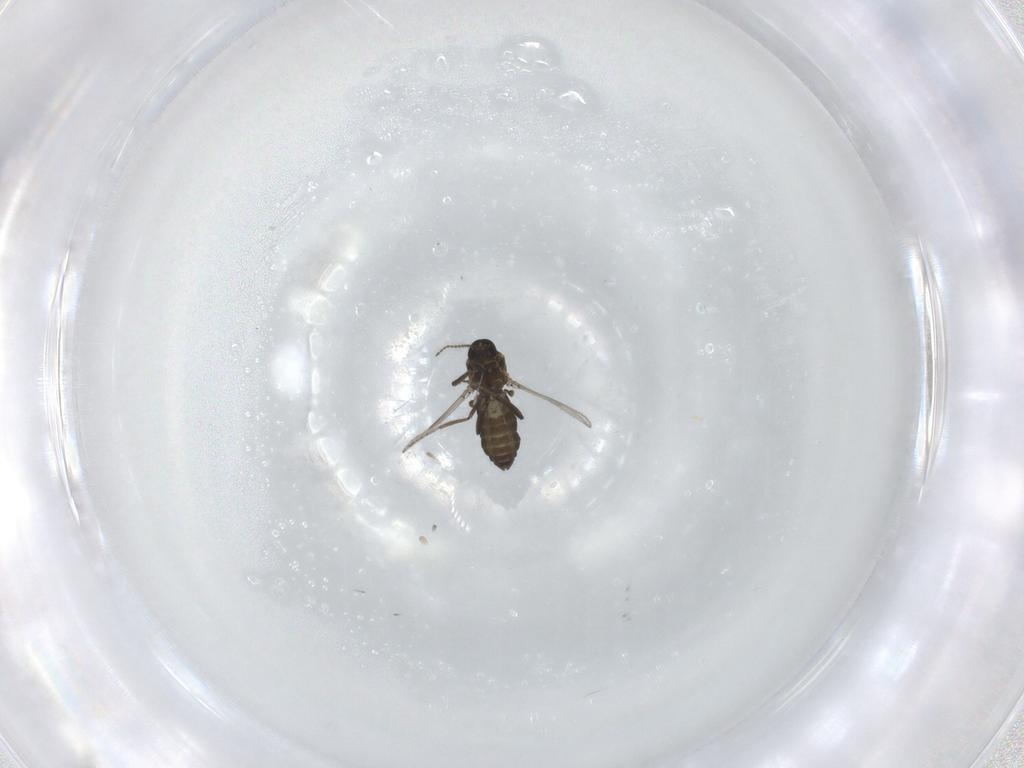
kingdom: Animalia
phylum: Arthropoda
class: Insecta
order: Diptera
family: Ceratopogonidae
